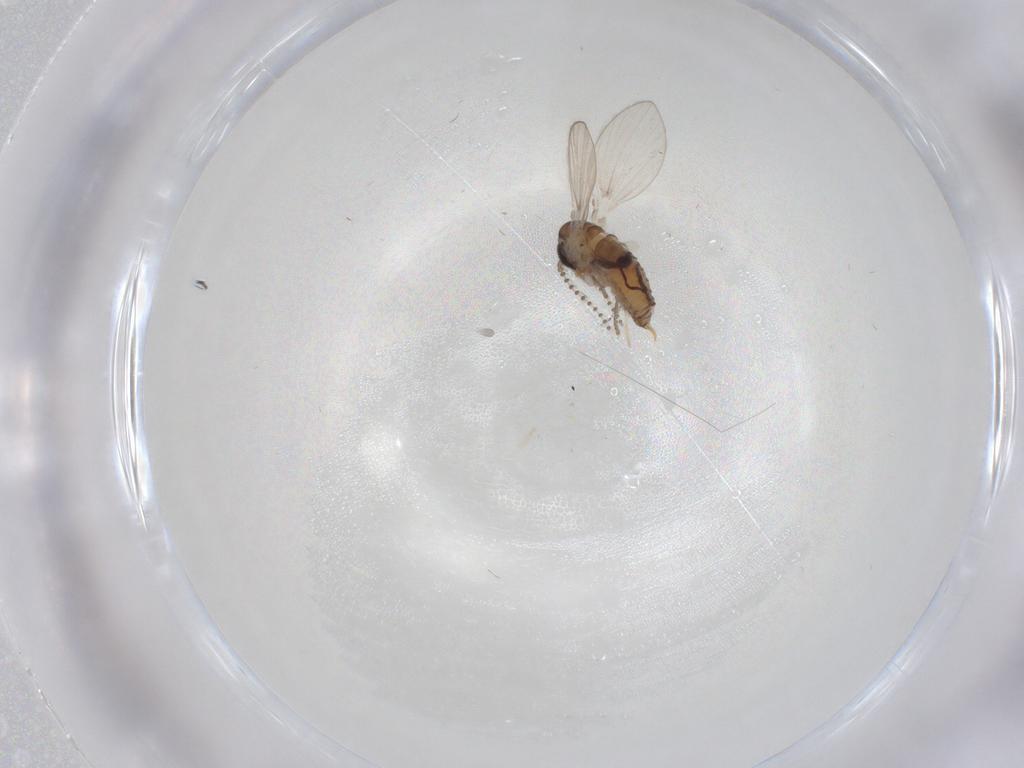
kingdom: Animalia
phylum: Arthropoda
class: Insecta
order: Diptera
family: Psychodidae
